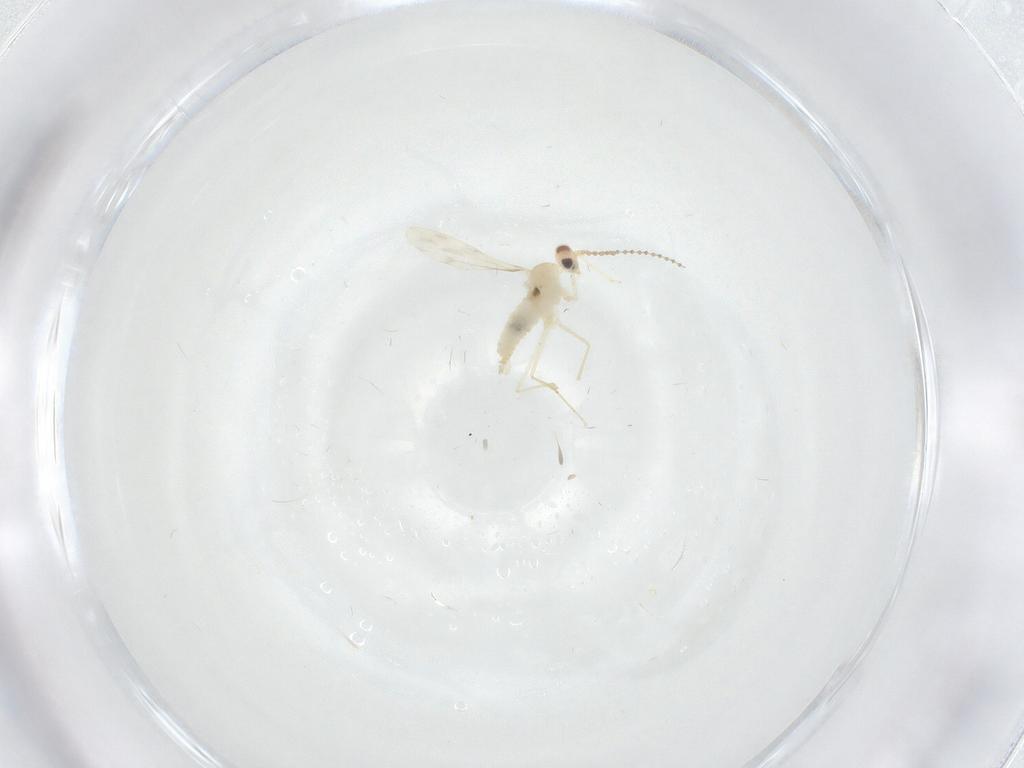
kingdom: Animalia
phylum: Arthropoda
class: Insecta
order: Diptera
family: Cecidomyiidae
